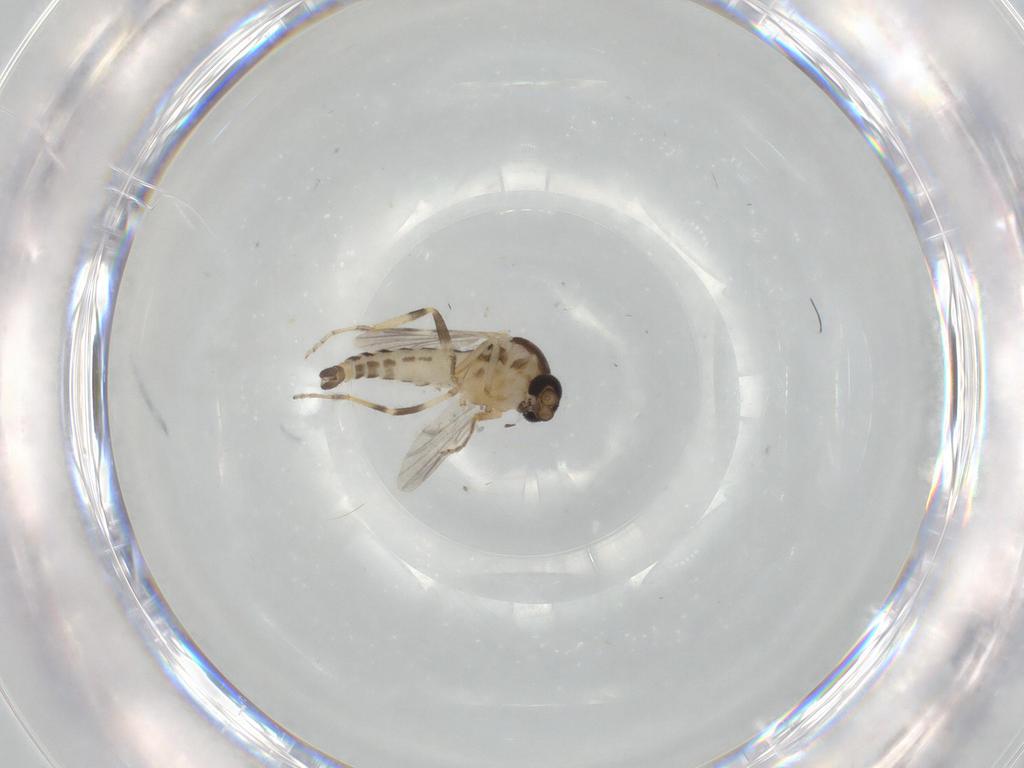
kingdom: Animalia
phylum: Arthropoda
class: Insecta
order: Diptera
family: Ceratopogonidae
